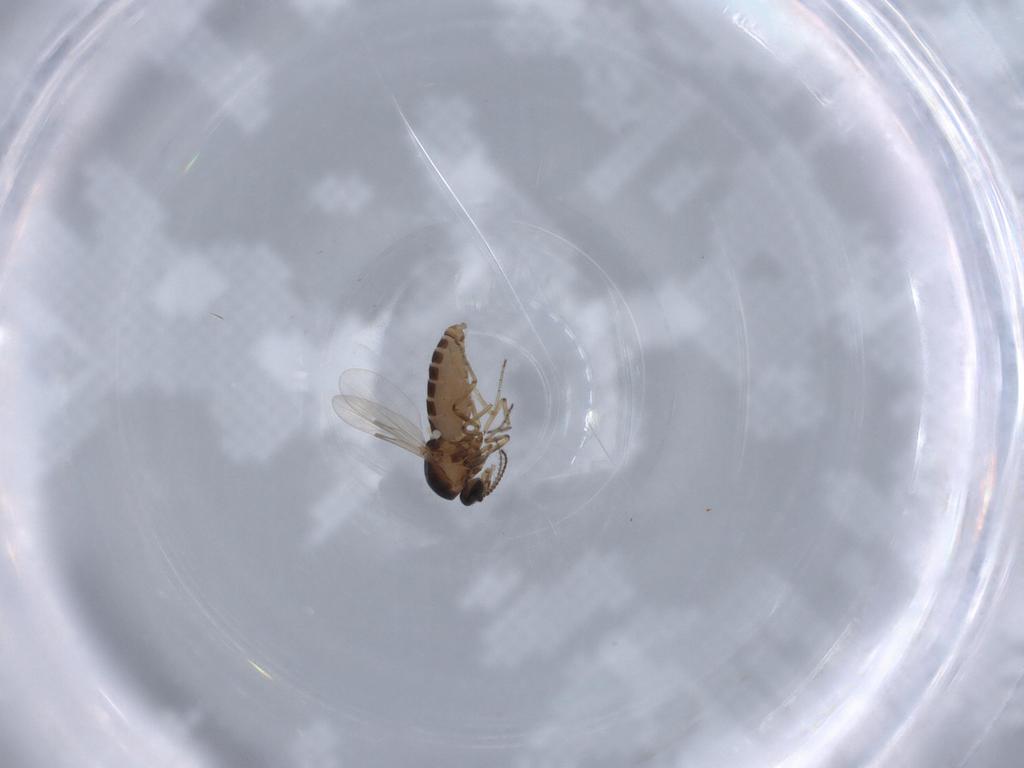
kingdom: Animalia
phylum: Arthropoda
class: Insecta
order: Diptera
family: Ceratopogonidae
